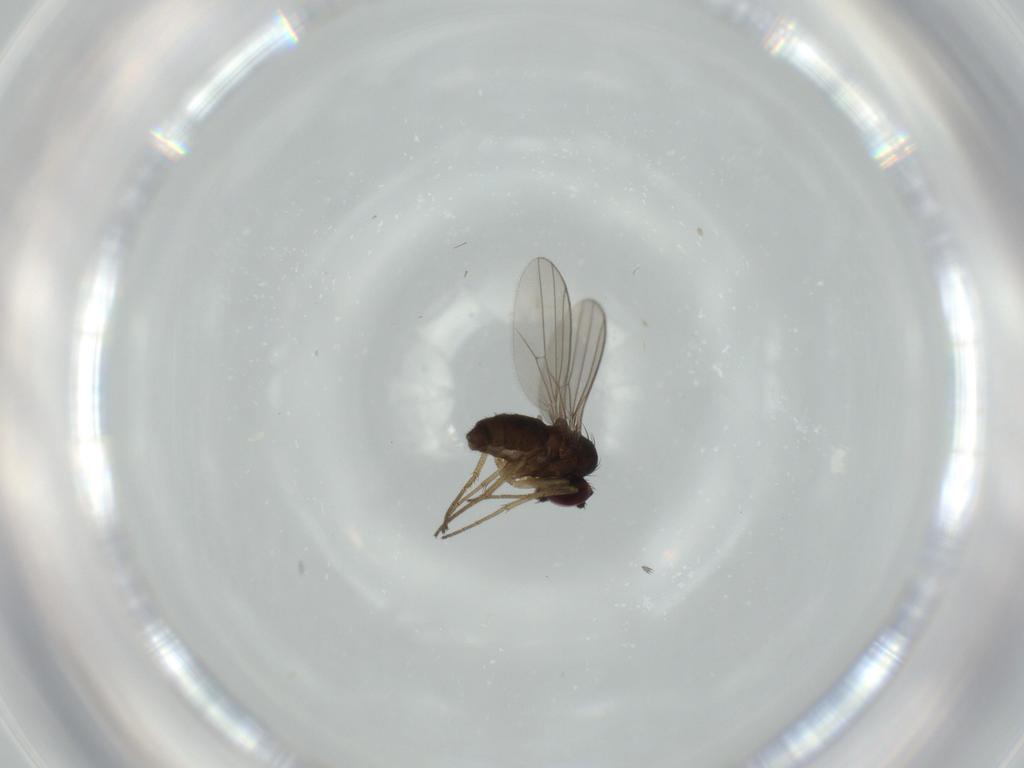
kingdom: Animalia
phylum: Arthropoda
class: Insecta
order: Diptera
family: Dolichopodidae
